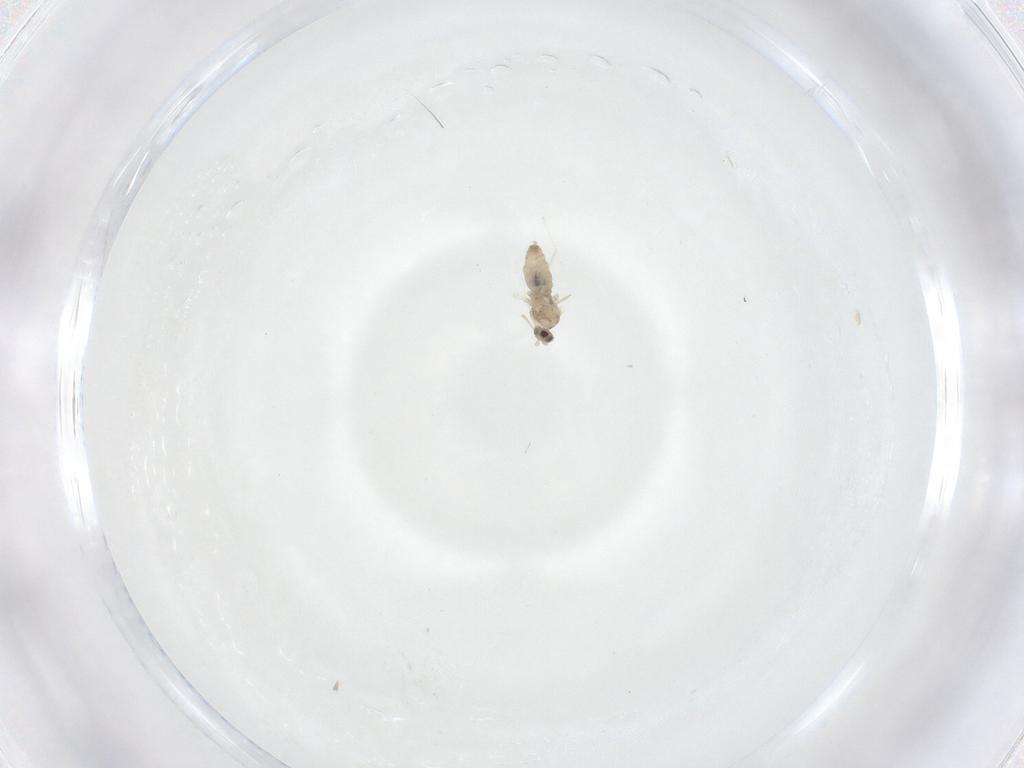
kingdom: Animalia
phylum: Arthropoda
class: Insecta
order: Diptera
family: Cecidomyiidae
